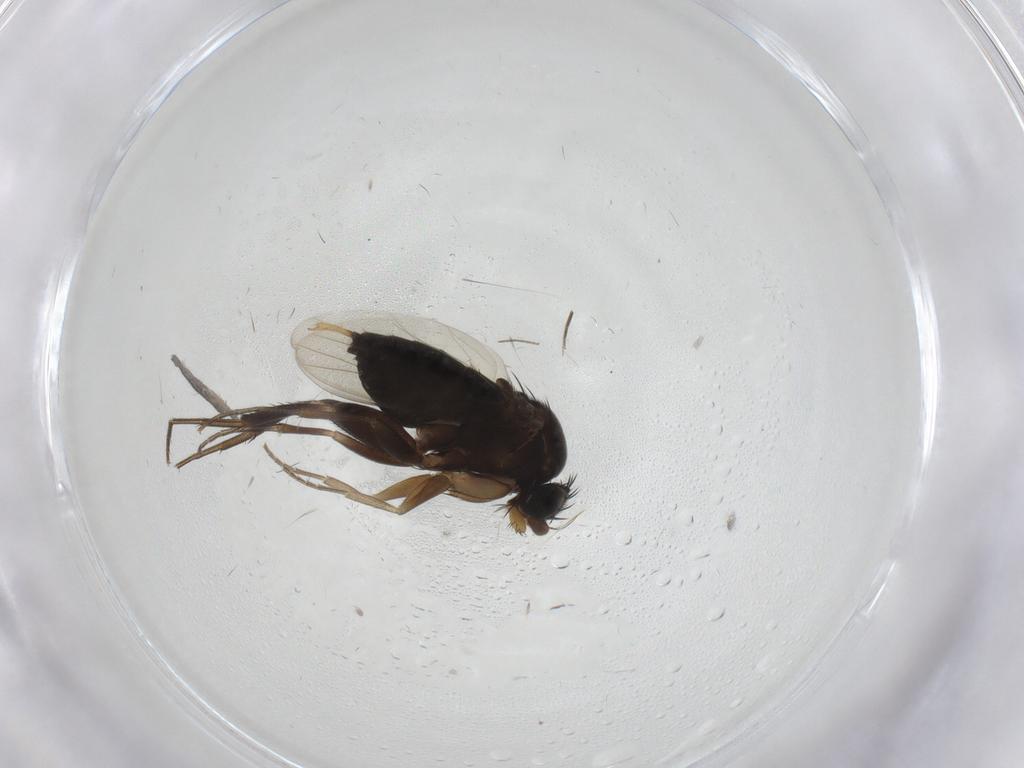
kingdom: Animalia
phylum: Arthropoda
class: Insecta
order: Diptera
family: Phoridae
